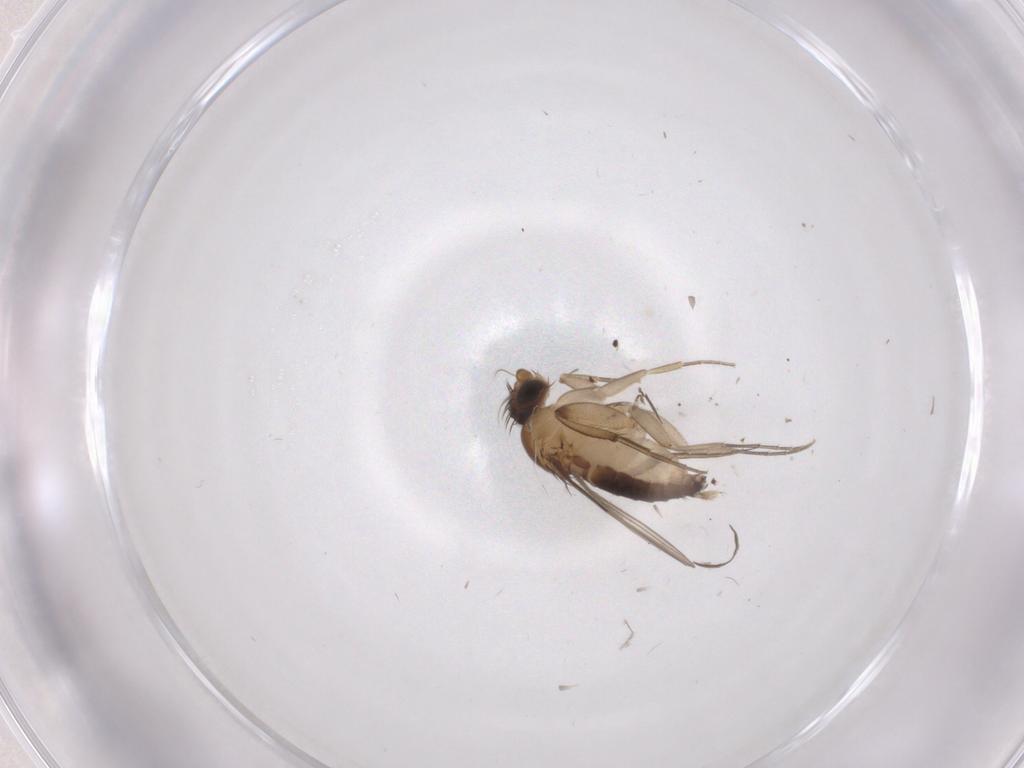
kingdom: Animalia
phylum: Arthropoda
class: Insecta
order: Diptera
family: Phoridae
